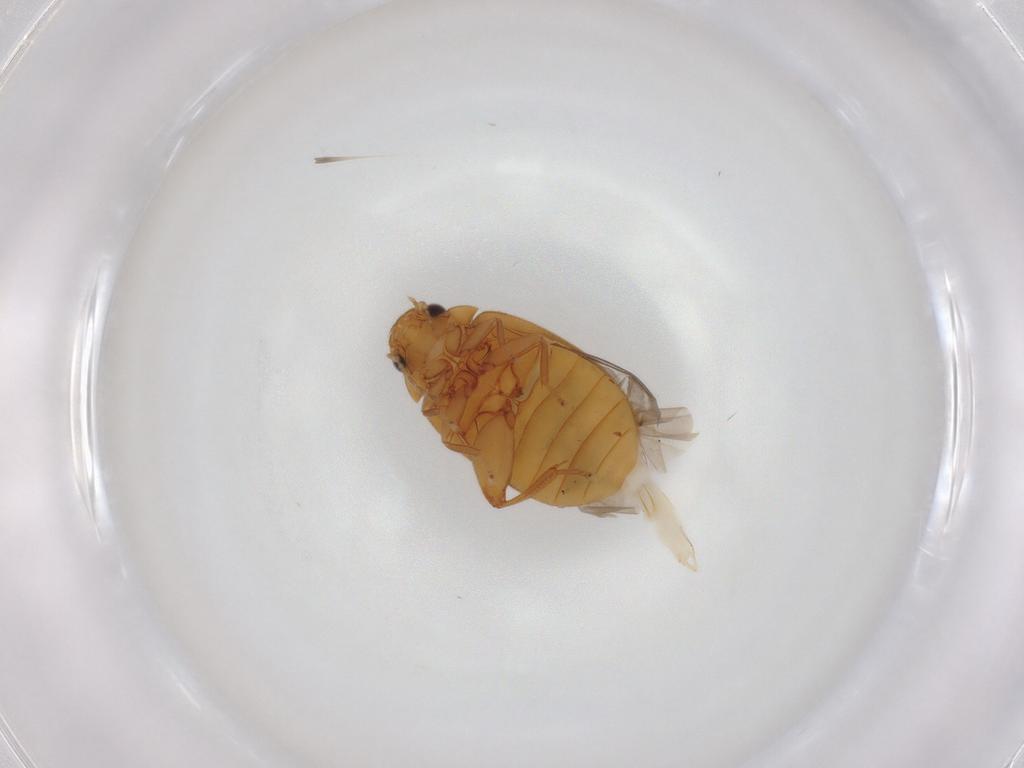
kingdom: Animalia
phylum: Arthropoda
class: Insecta
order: Coleoptera
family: Scirtidae
